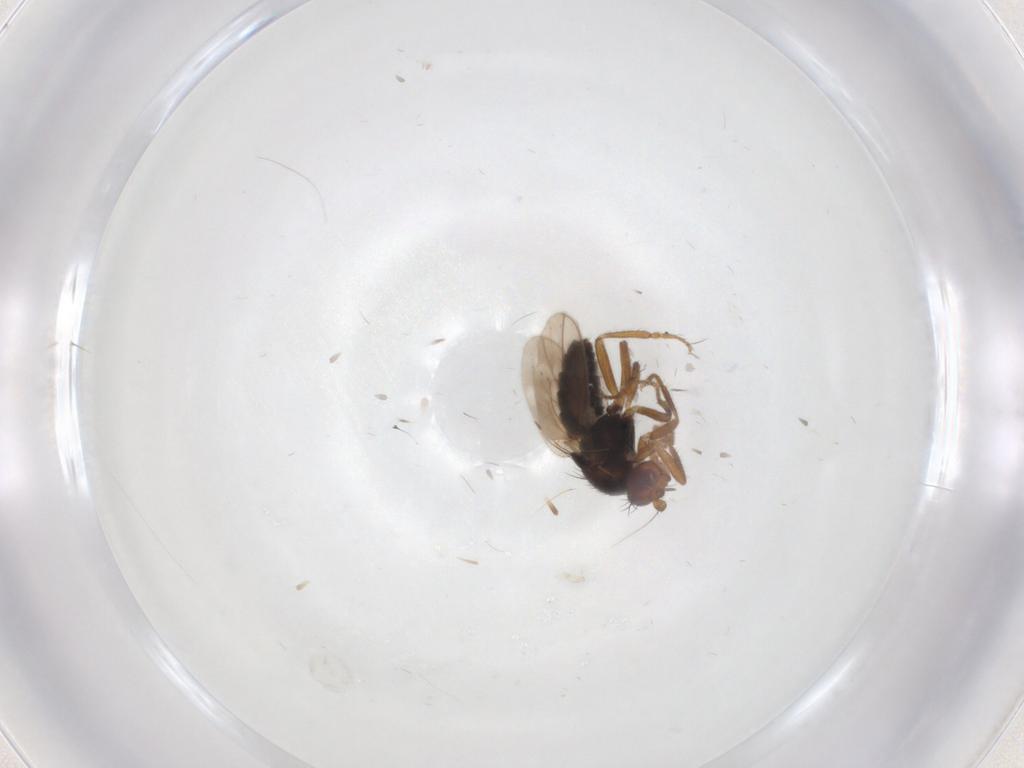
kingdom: Animalia
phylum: Arthropoda
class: Insecta
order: Diptera
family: Sphaeroceridae
